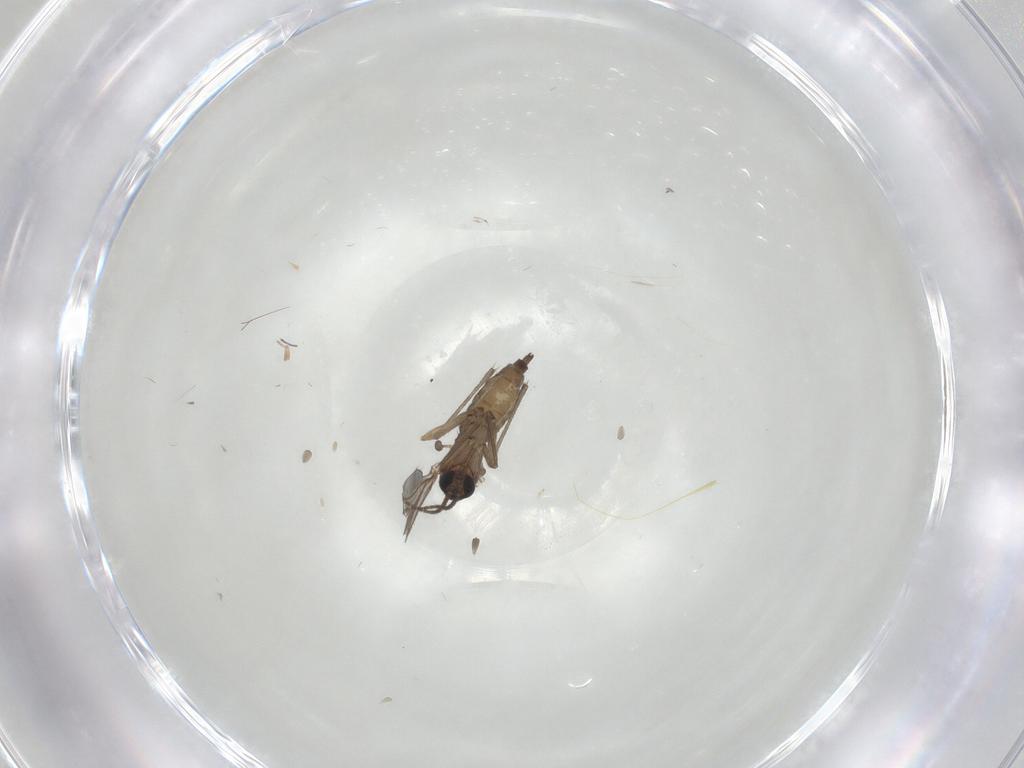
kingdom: Animalia
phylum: Arthropoda
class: Insecta
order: Diptera
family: Sciaridae
